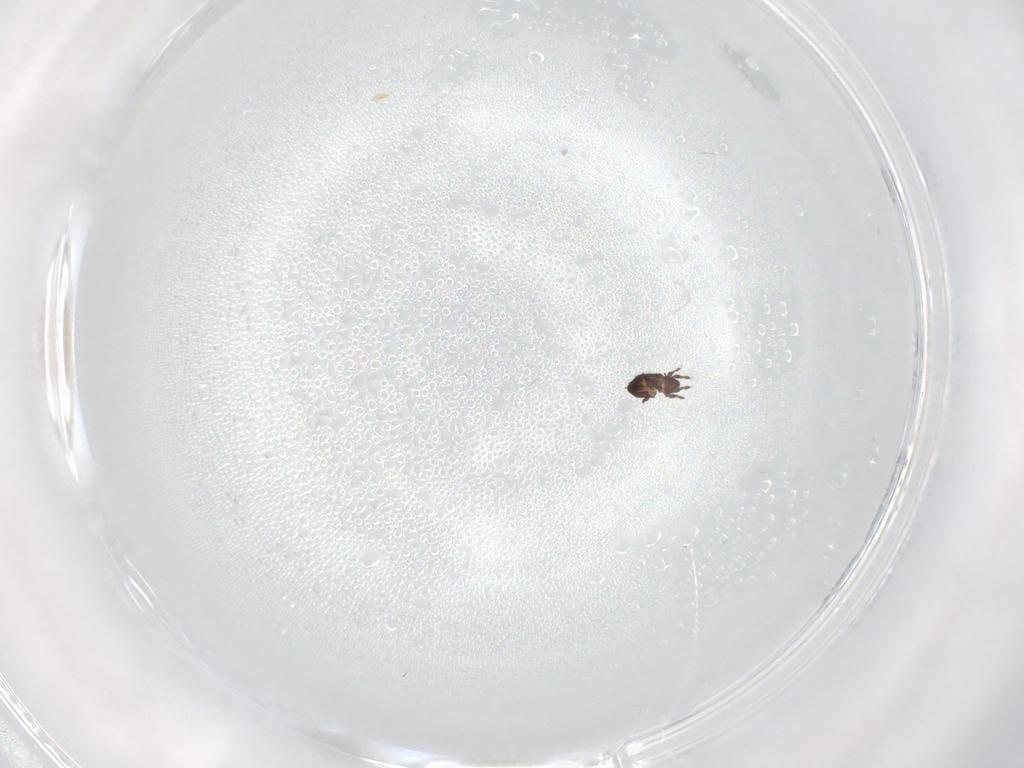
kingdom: Animalia
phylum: Arthropoda
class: Arachnida
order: Sarcoptiformes
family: Cymbaeremaeidae
